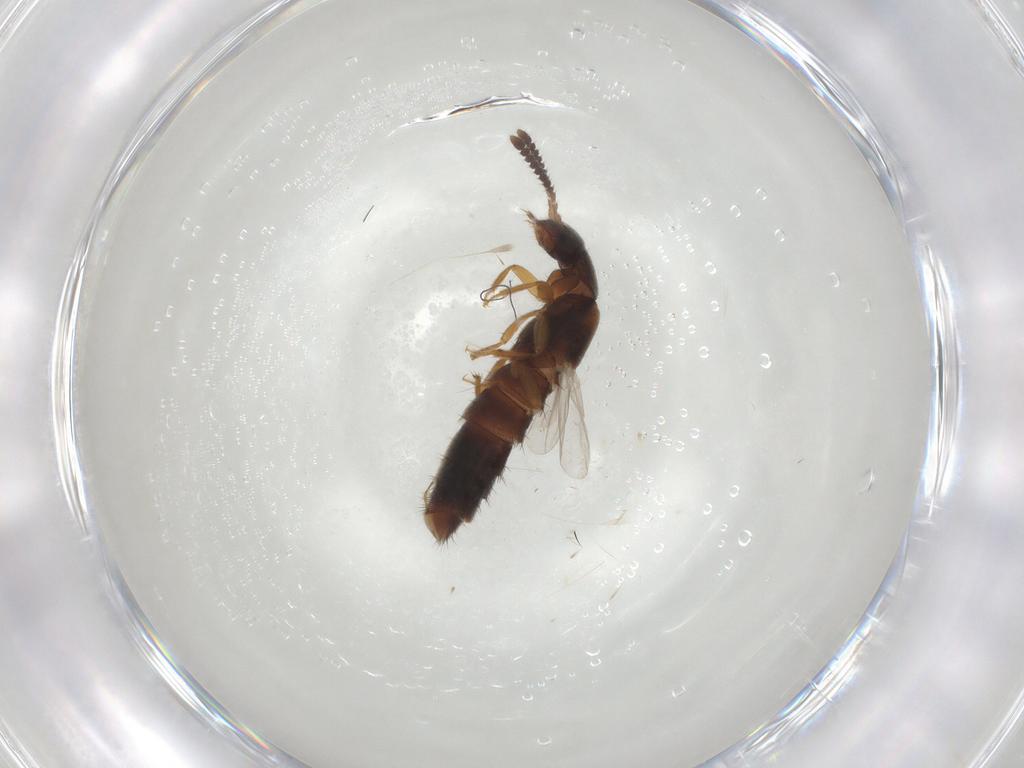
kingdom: Animalia
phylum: Arthropoda
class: Insecta
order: Coleoptera
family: Staphylinidae
